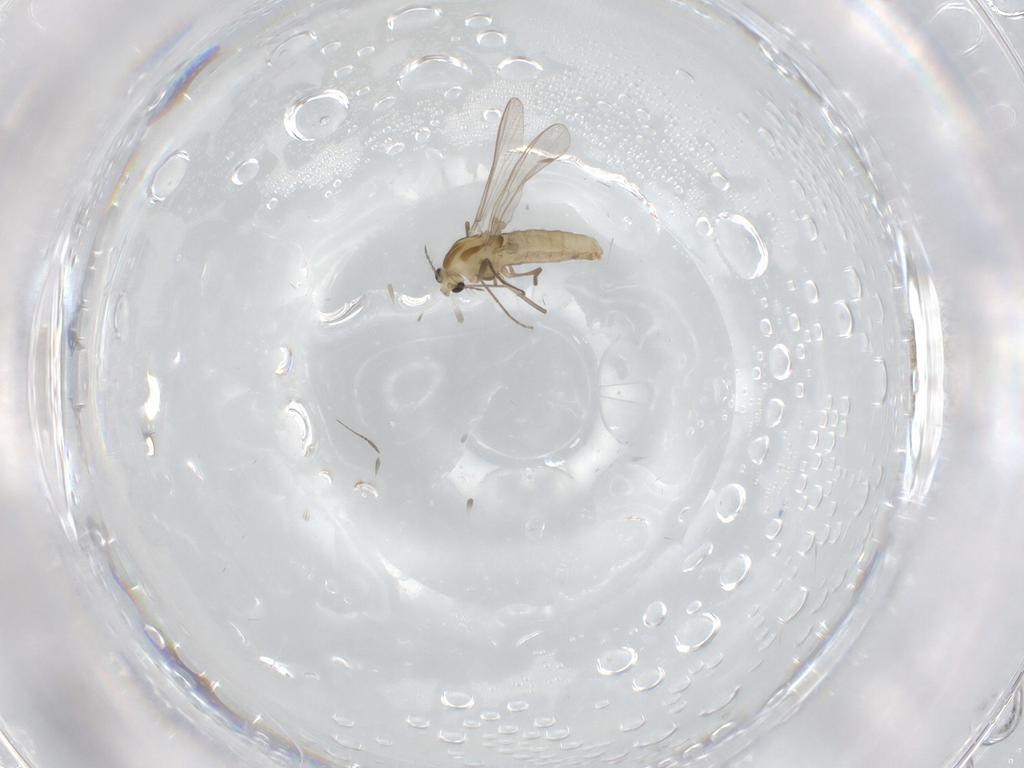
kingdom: Animalia
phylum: Arthropoda
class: Insecta
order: Diptera
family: Chironomidae
